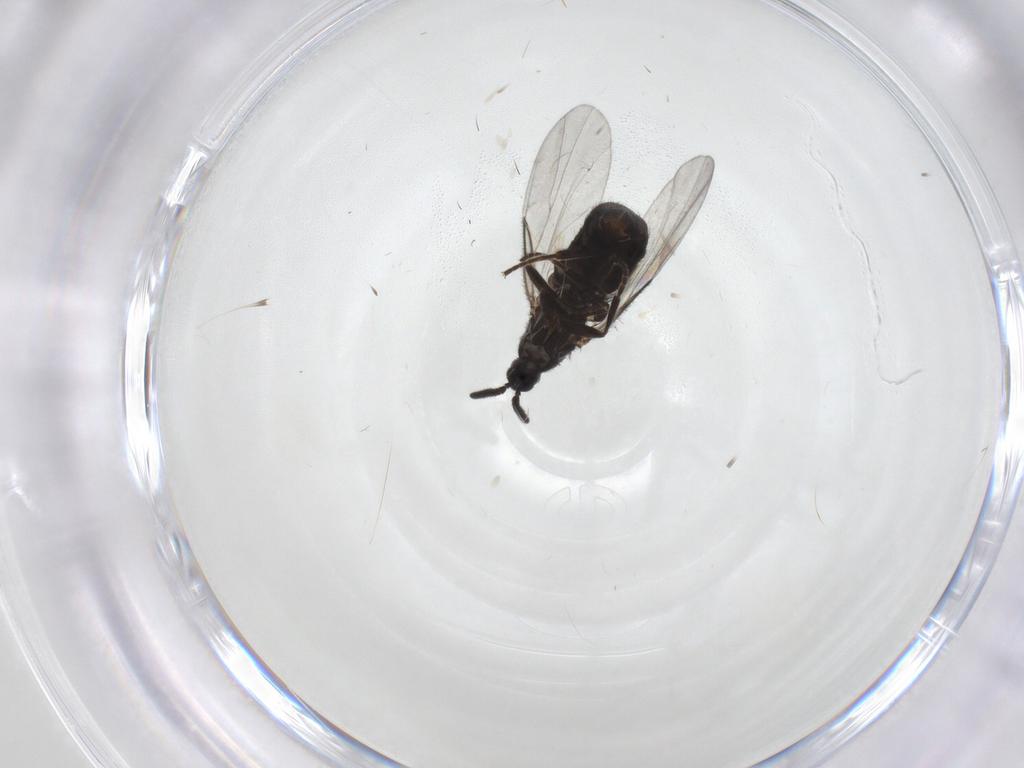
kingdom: Animalia
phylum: Arthropoda
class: Insecta
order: Diptera
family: Scatopsidae
